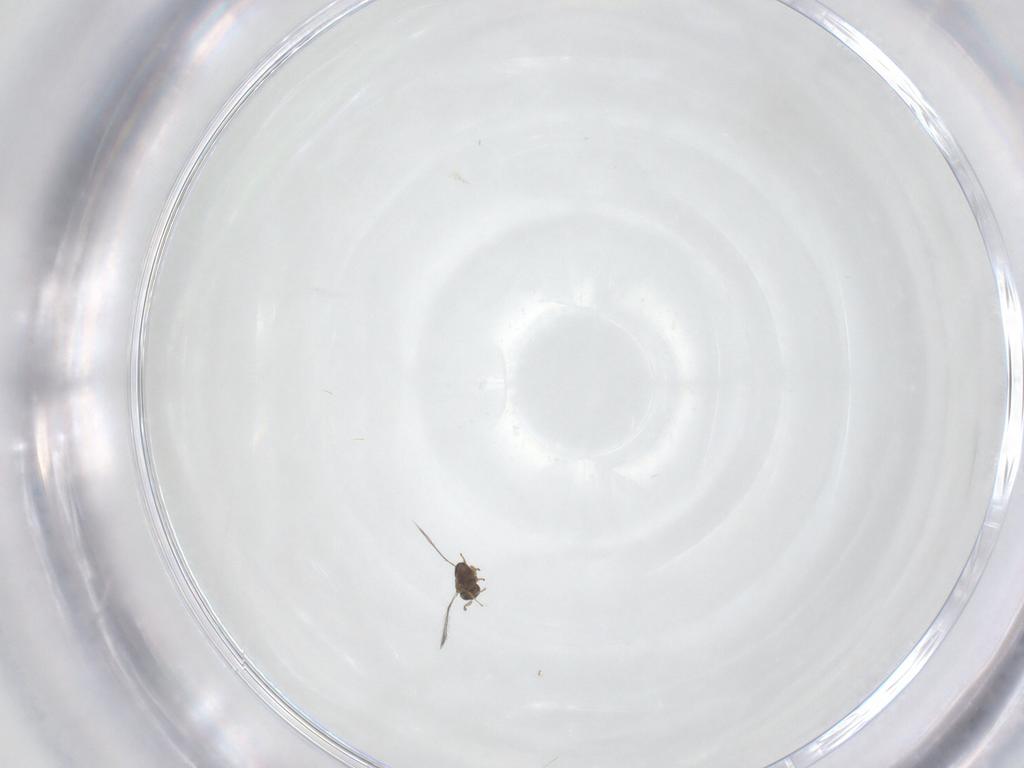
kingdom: Animalia
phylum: Arthropoda
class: Insecta
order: Hymenoptera
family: Mymaridae
